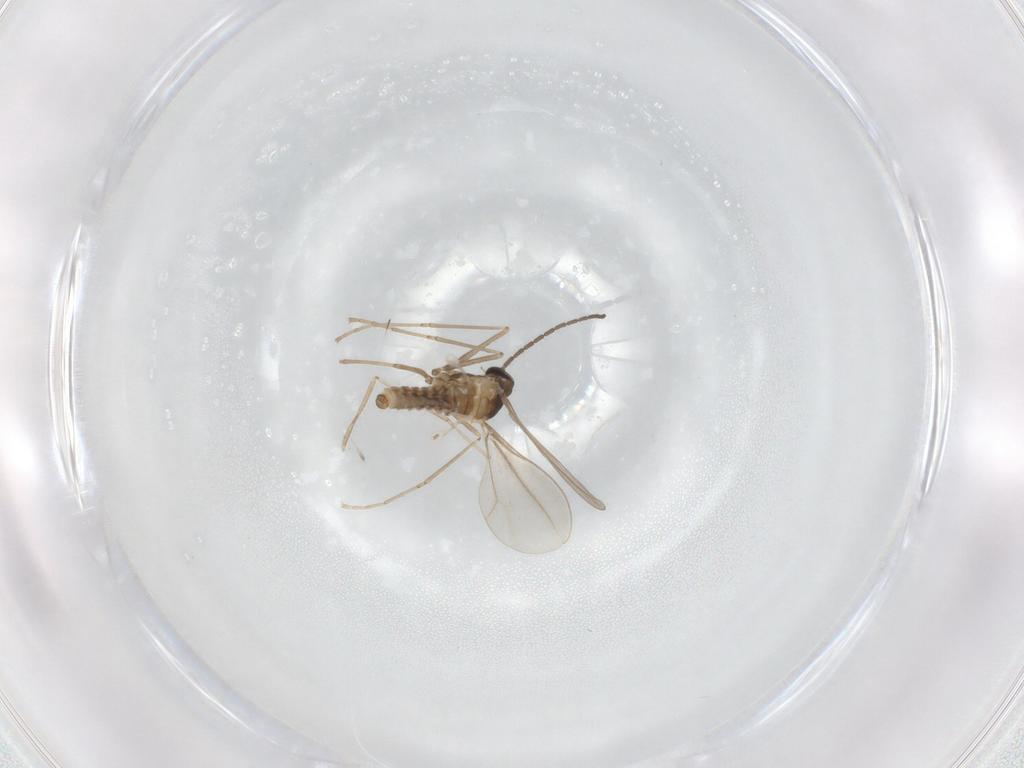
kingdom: Animalia
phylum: Arthropoda
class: Insecta
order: Diptera
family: Cecidomyiidae
